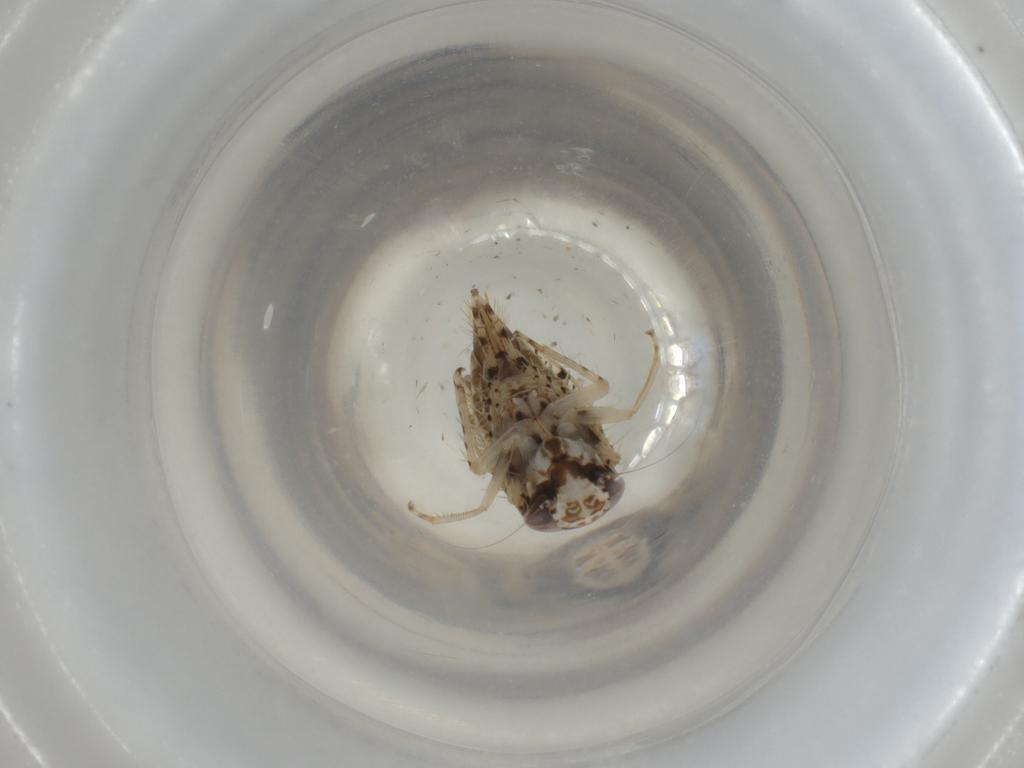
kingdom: Animalia
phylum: Arthropoda
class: Insecta
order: Hemiptera
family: Cicadellidae
